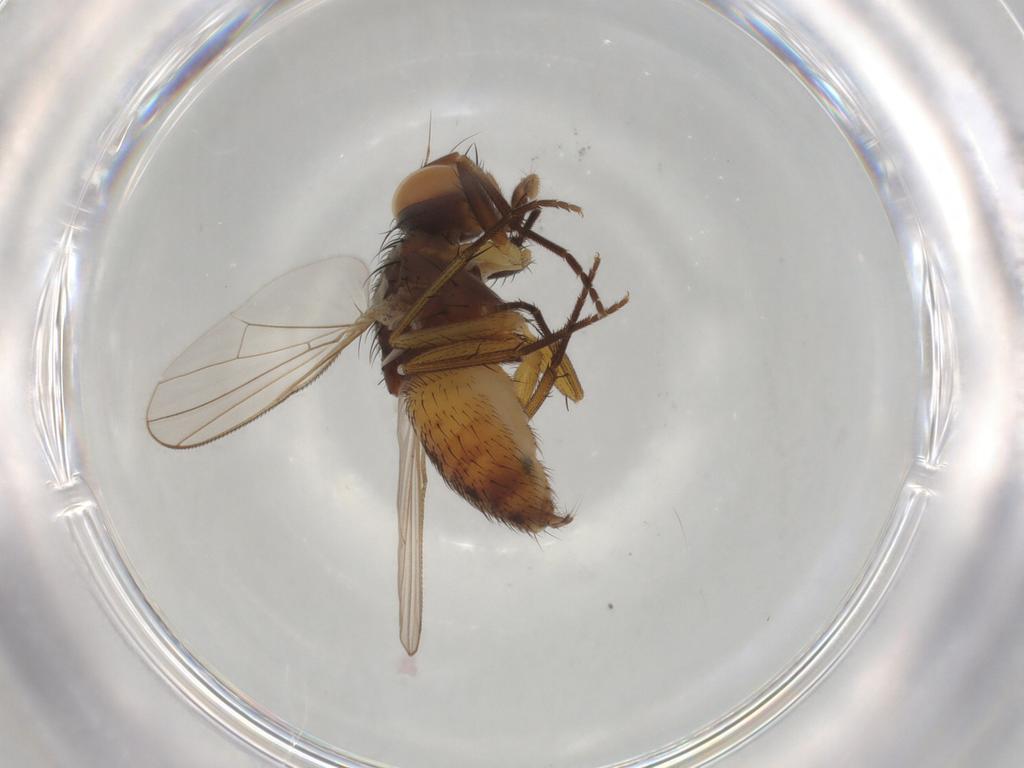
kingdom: Animalia
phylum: Arthropoda
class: Insecta
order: Diptera
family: Muscidae
